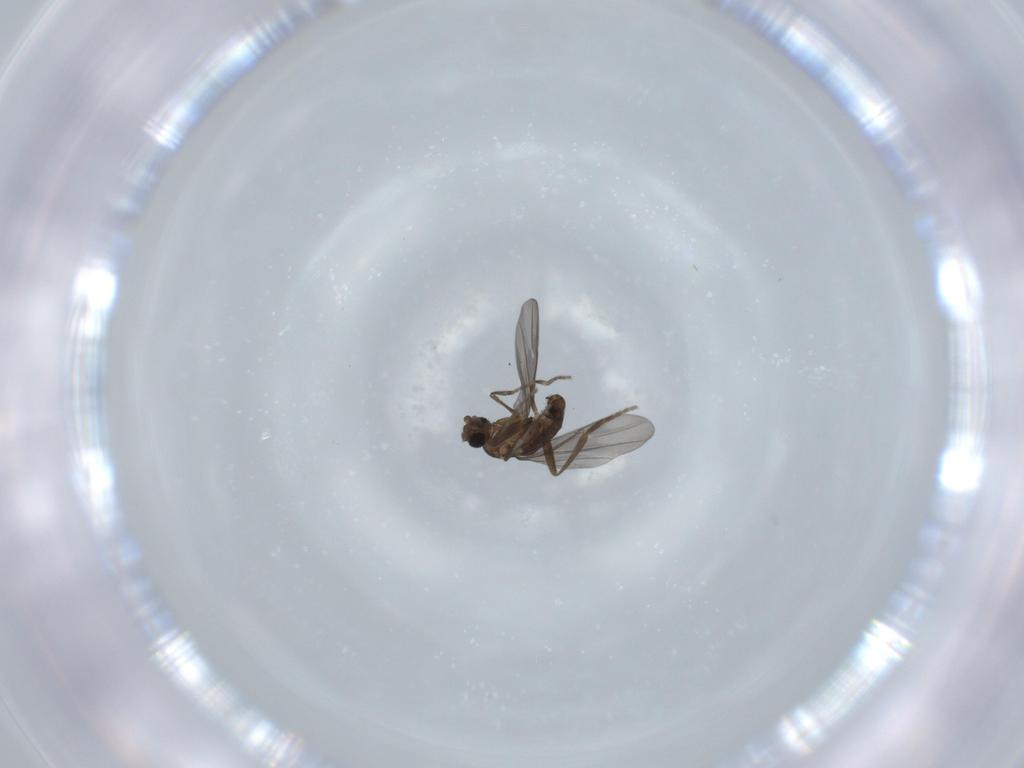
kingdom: Animalia
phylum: Arthropoda
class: Insecta
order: Diptera
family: Phoridae
